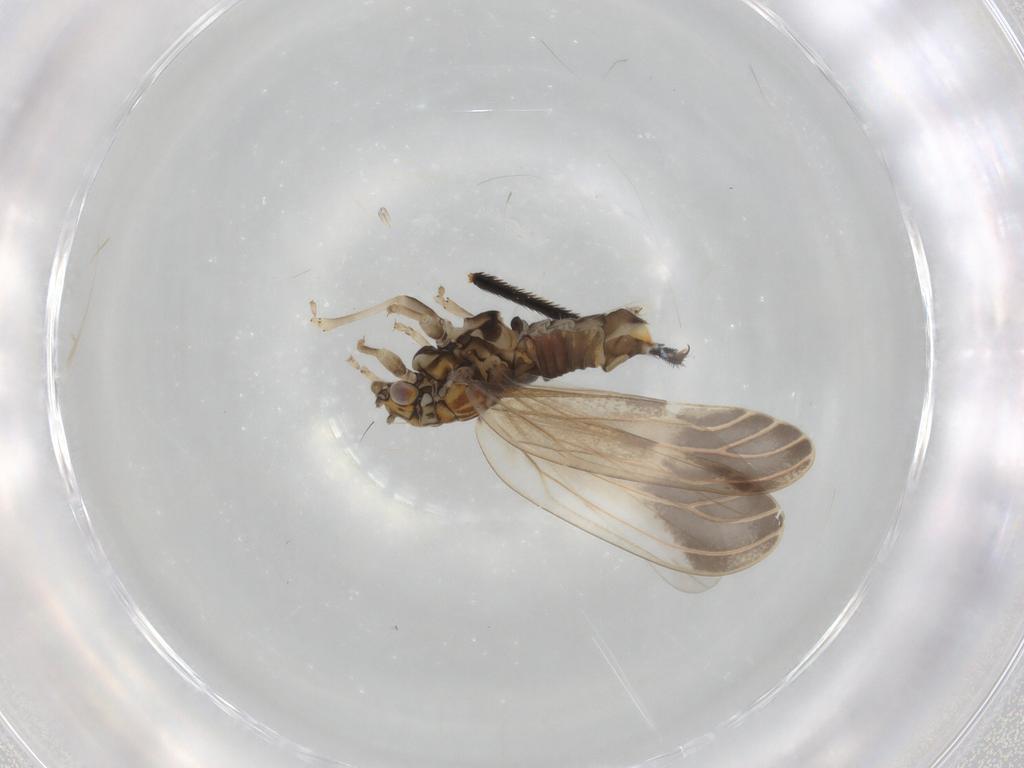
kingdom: Animalia
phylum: Arthropoda
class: Insecta
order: Hemiptera
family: Aphalaridae
